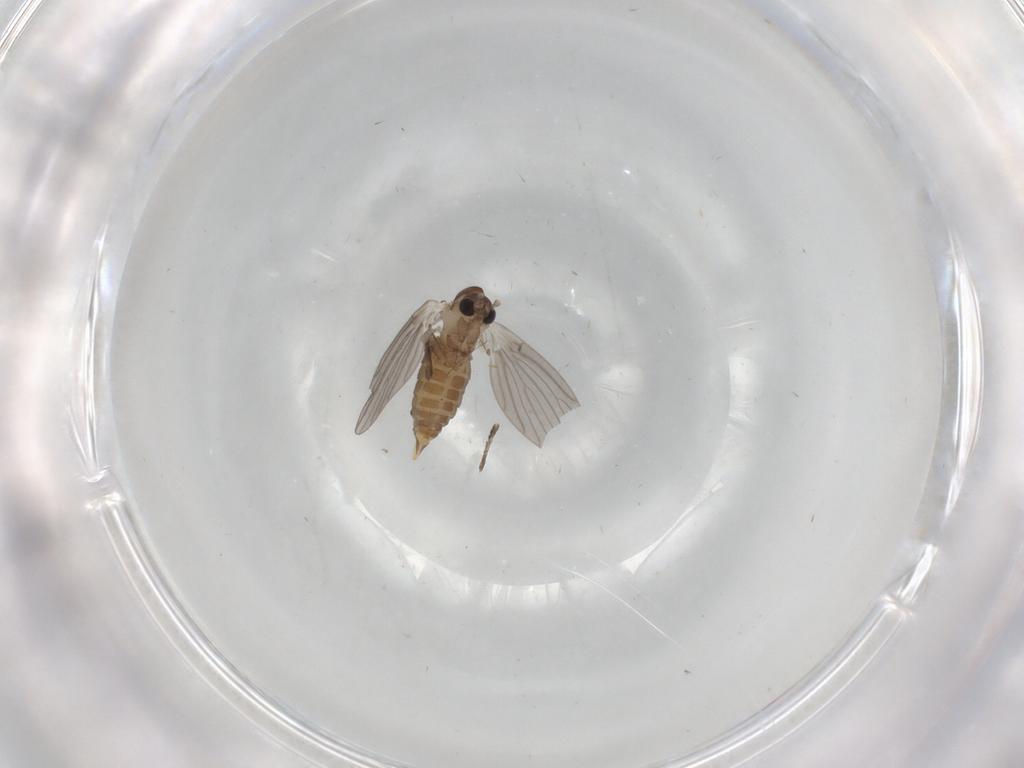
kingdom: Animalia
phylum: Arthropoda
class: Insecta
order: Diptera
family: Psychodidae
